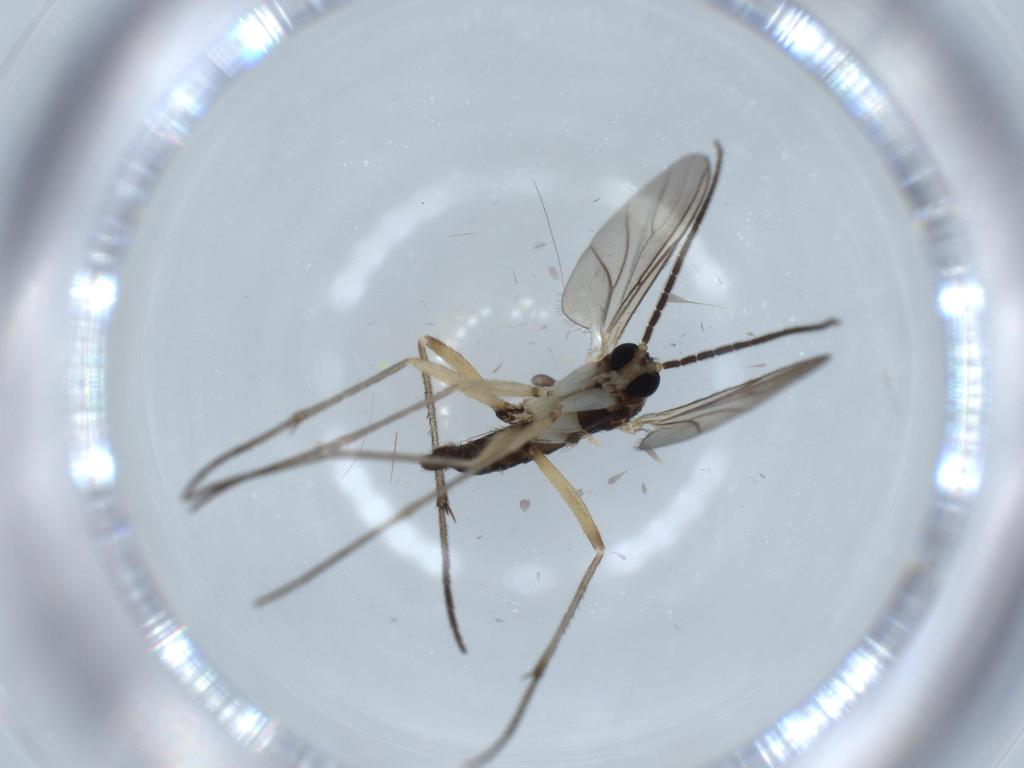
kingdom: Animalia
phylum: Arthropoda
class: Insecta
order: Diptera
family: Sciaridae
